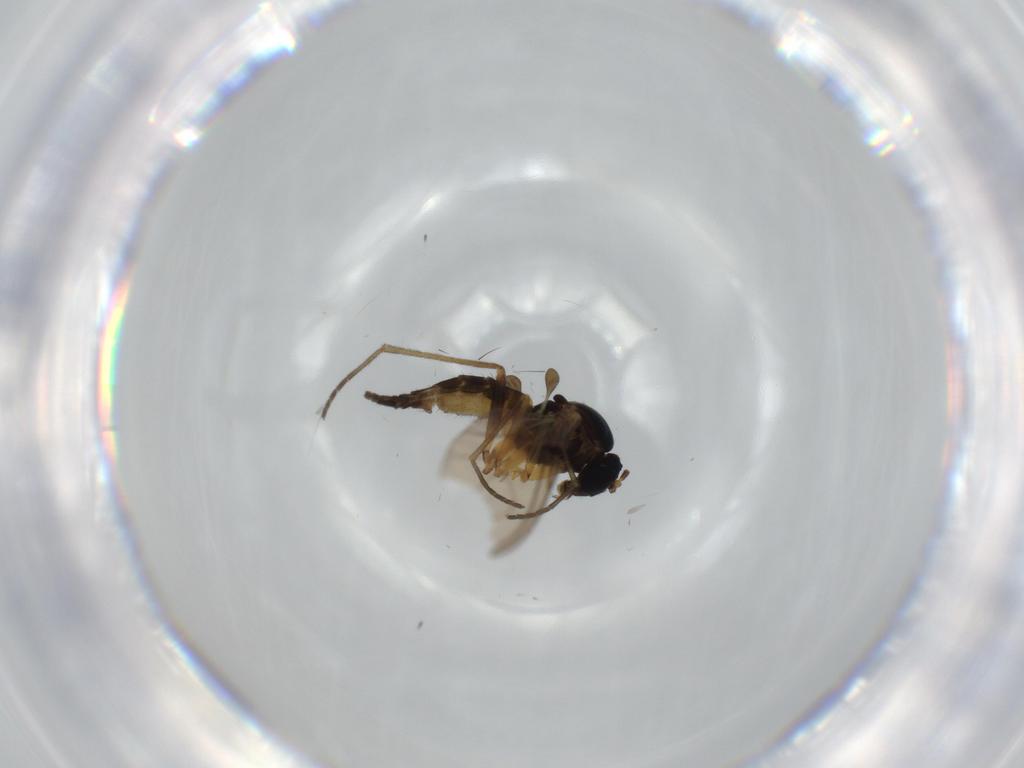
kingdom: Animalia
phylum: Arthropoda
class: Insecta
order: Diptera
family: Sciaridae
